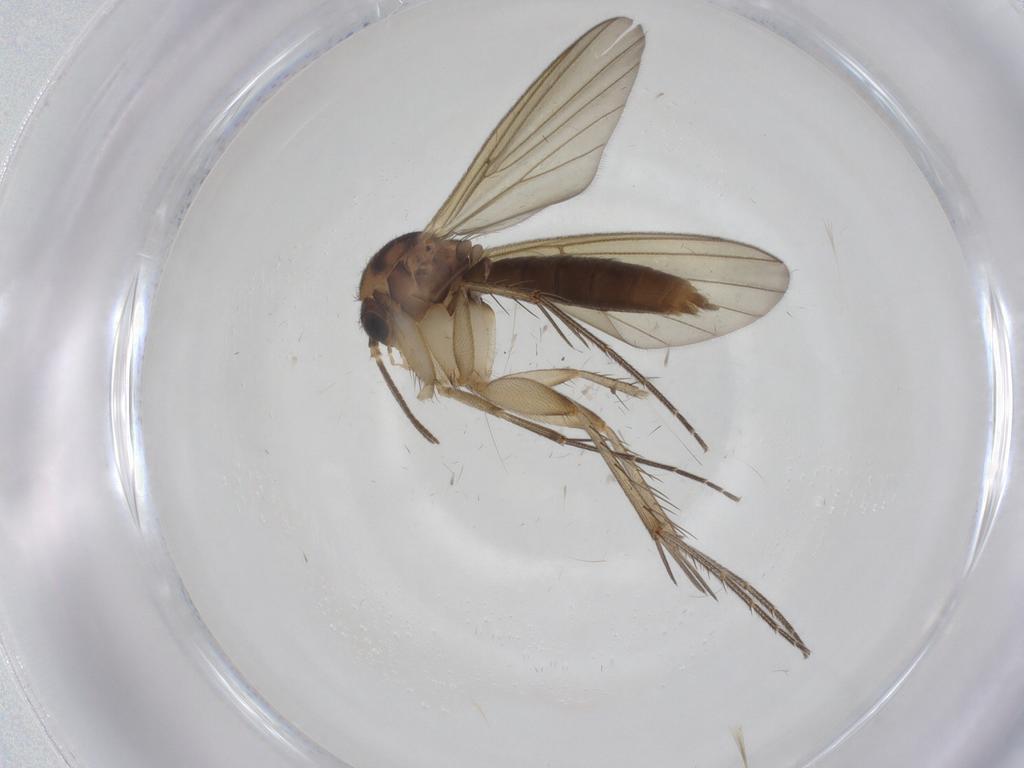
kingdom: Animalia
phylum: Arthropoda
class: Insecta
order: Diptera
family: Mycetophilidae
